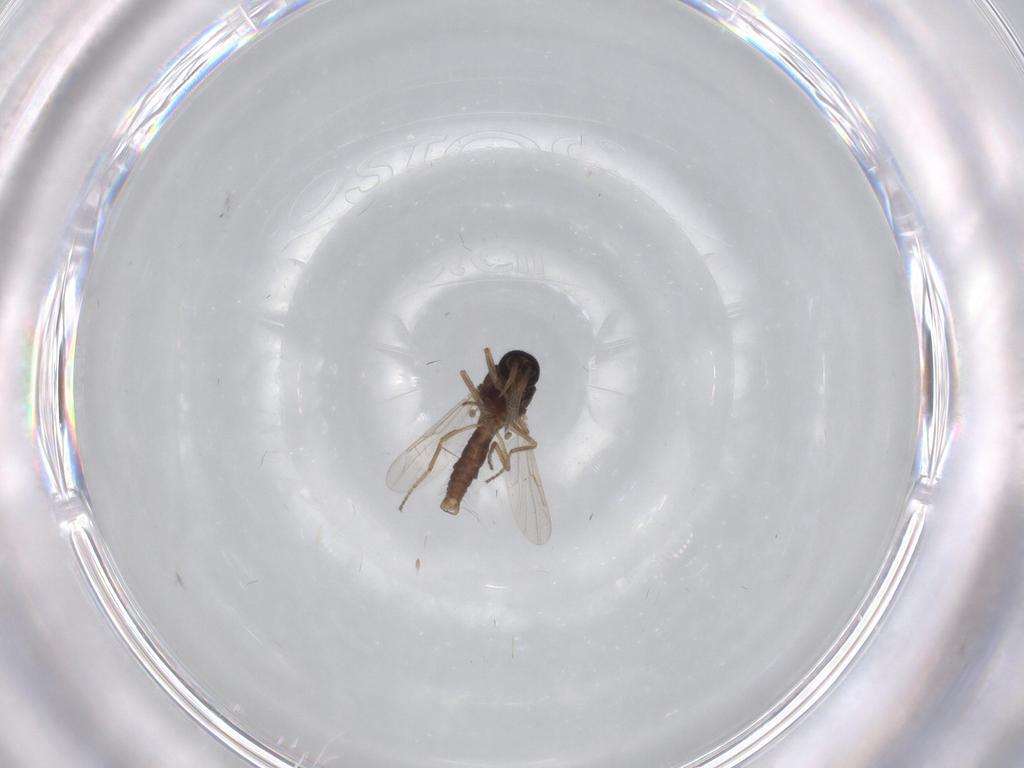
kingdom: Animalia
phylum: Arthropoda
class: Insecta
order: Diptera
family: Ceratopogonidae
